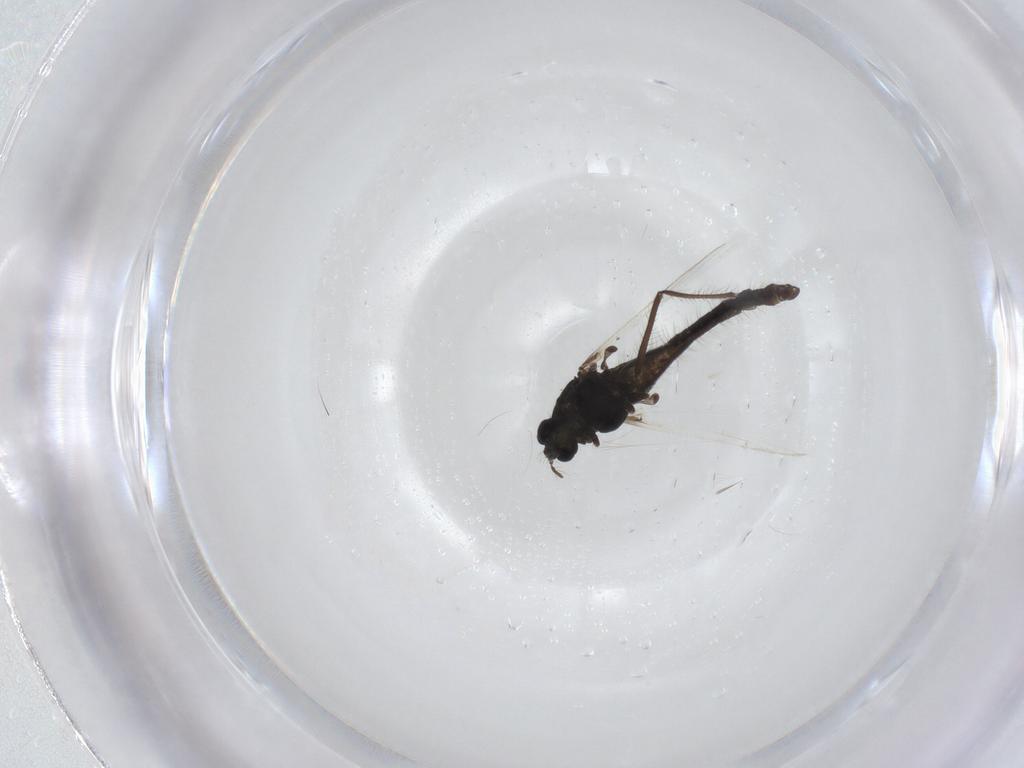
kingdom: Animalia
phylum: Arthropoda
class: Insecta
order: Diptera
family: Chironomidae
